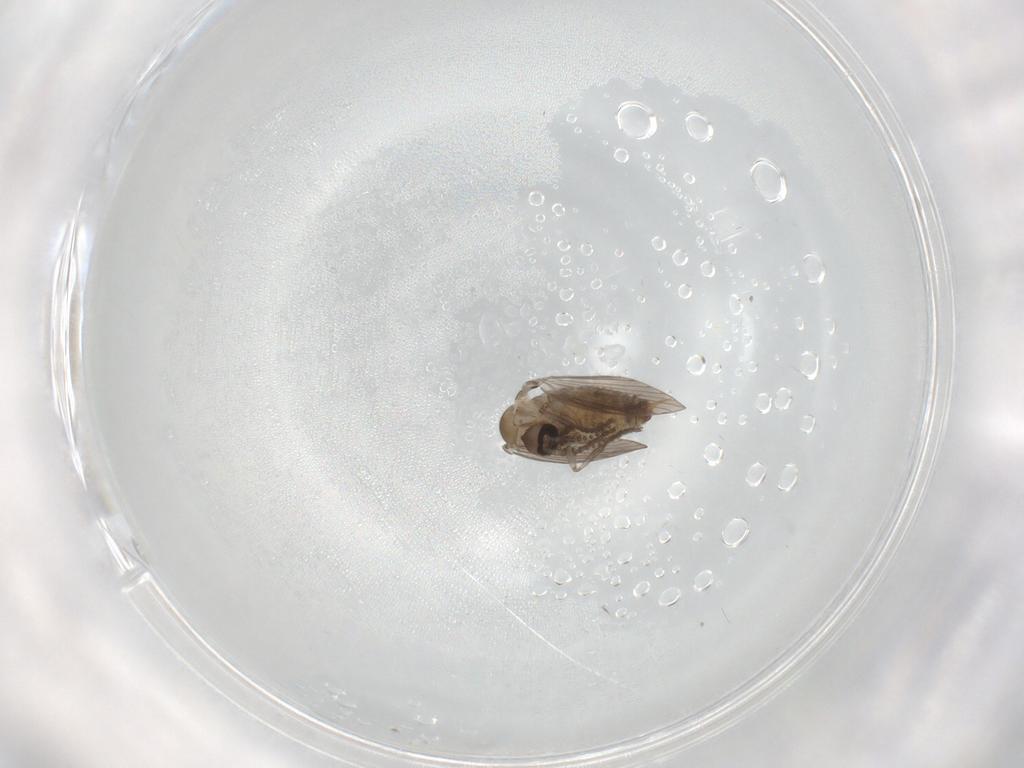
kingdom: Animalia
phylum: Arthropoda
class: Insecta
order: Diptera
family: Psychodidae
